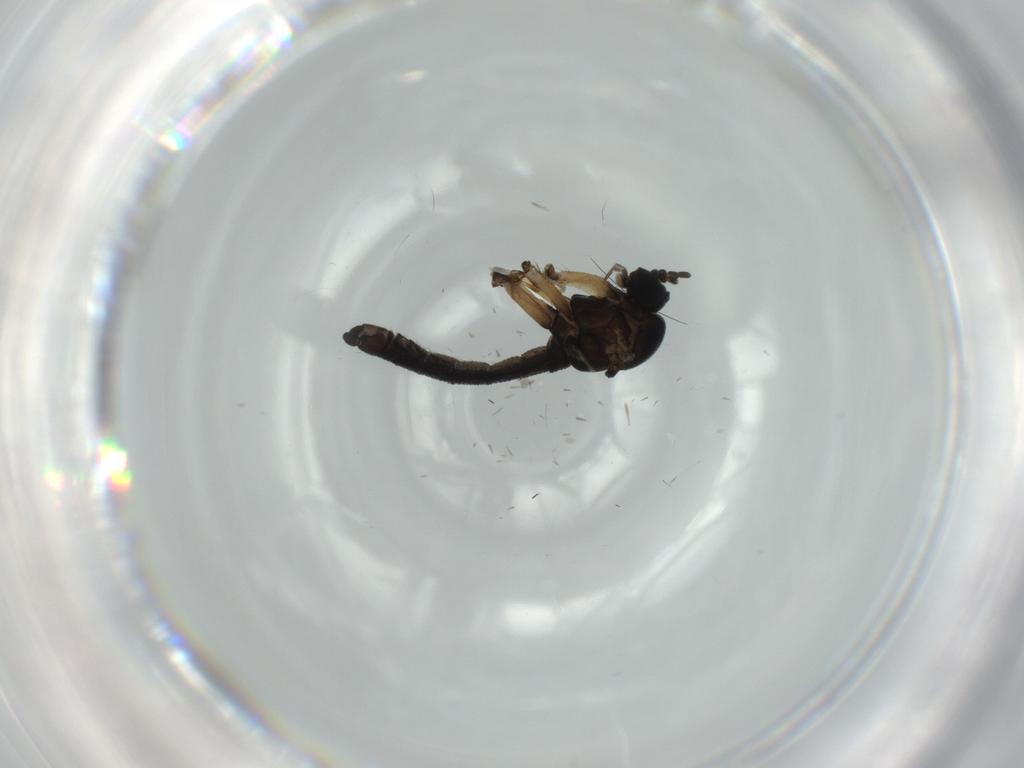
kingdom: Animalia
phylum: Arthropoda
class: Insecta
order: Diptera
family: Sciaridae
